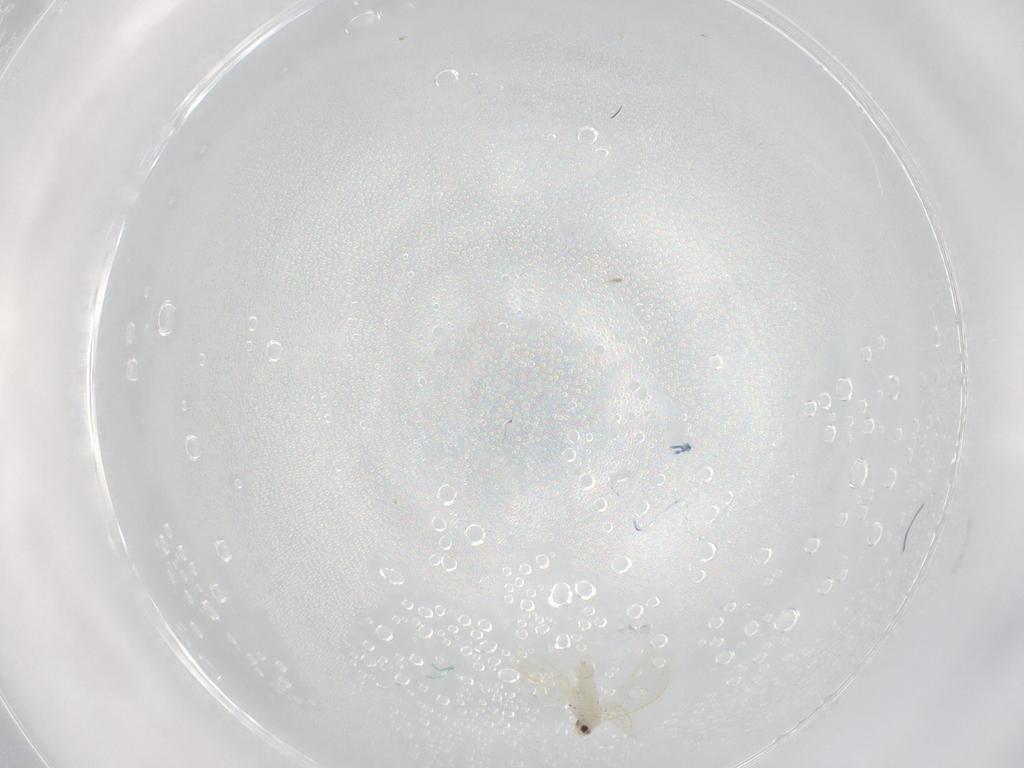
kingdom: Animalia
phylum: Arthropoda
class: Insecta
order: Hemiptera
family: Aleyrodidae
